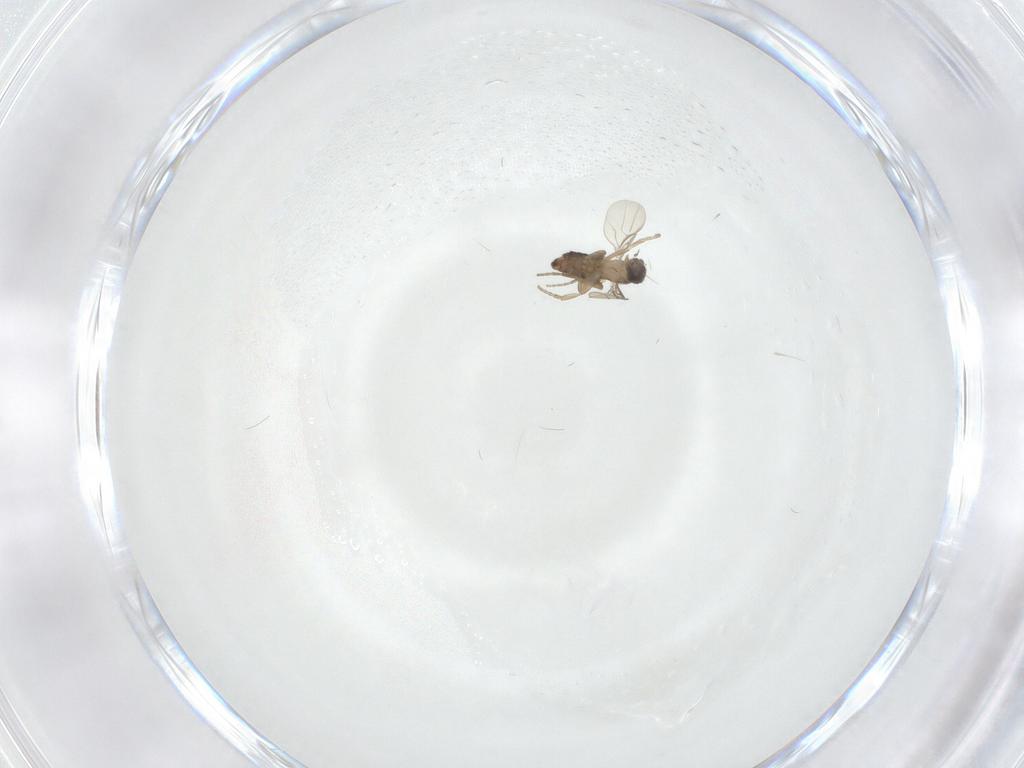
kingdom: Animalia
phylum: Arthropoda
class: Insecta
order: Diptera
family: Phoridae
